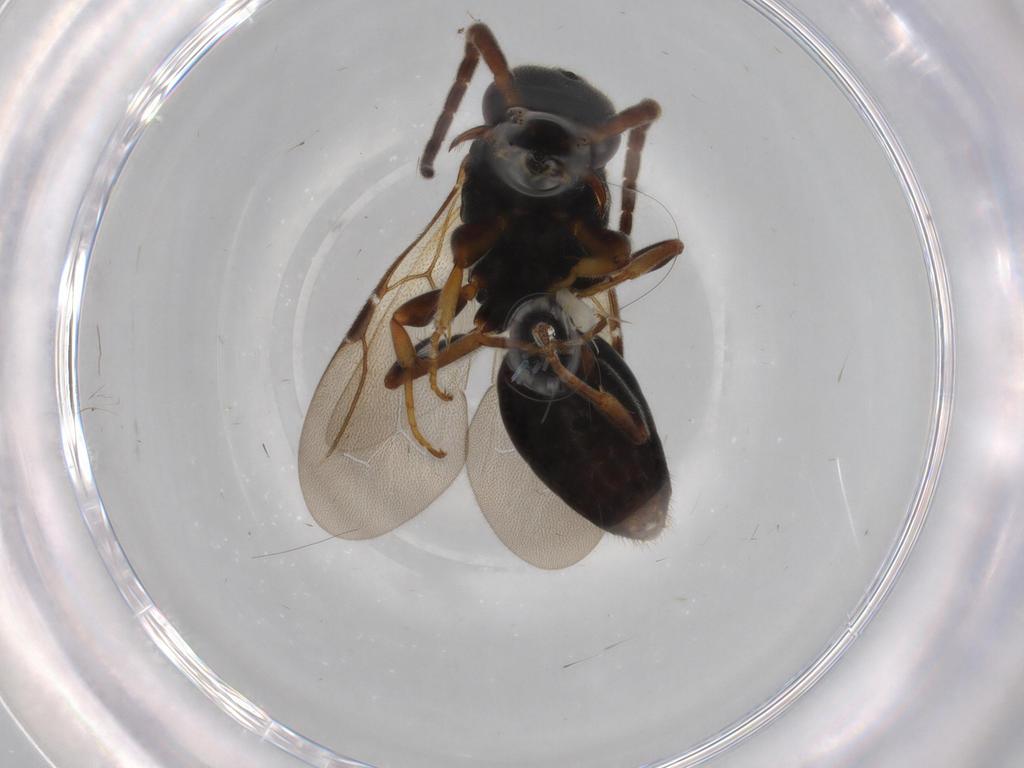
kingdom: Animalia
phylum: Arthropoda
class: Insecta
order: Hymenoptera
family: Bethylidae
